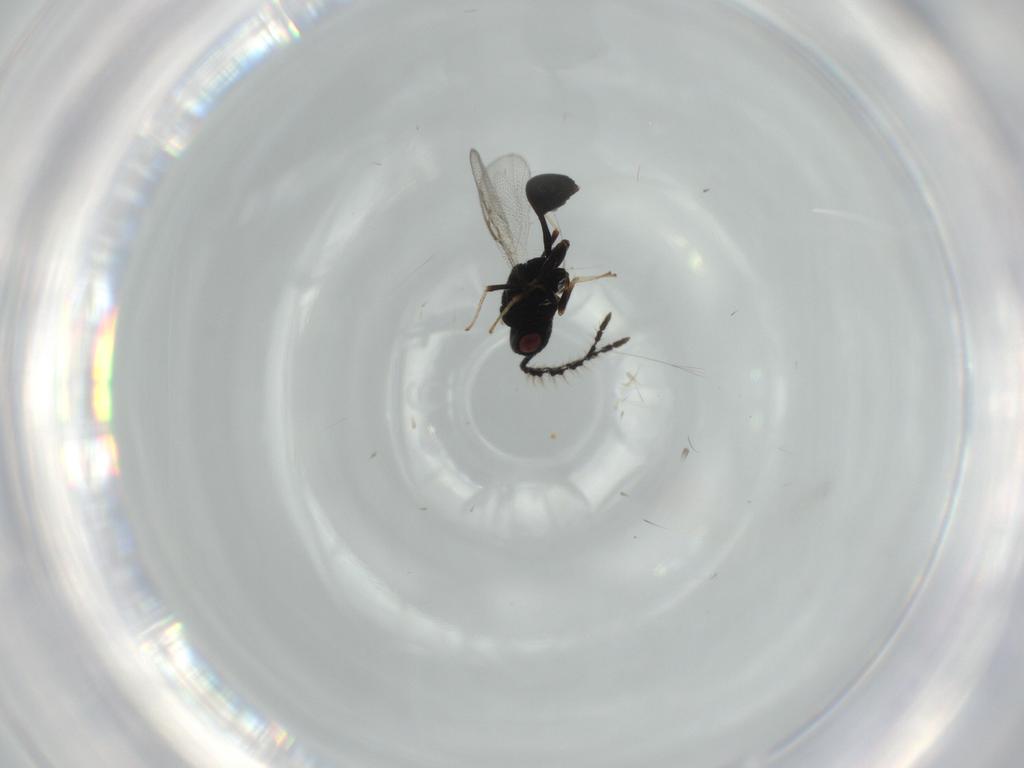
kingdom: Animalia
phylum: Arthropoda
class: Insecta
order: Hymenoptera
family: Eurytomidae
